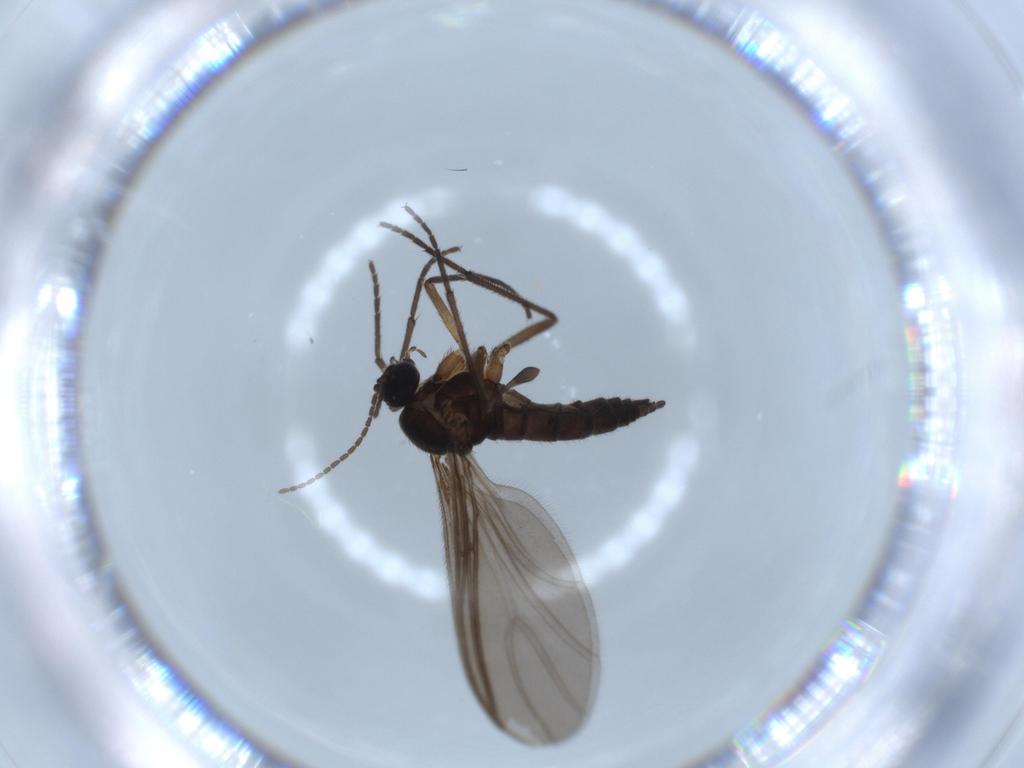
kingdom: Animalia
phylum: Arthropoda
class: Insecta
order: Diptera
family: Sciaridae
